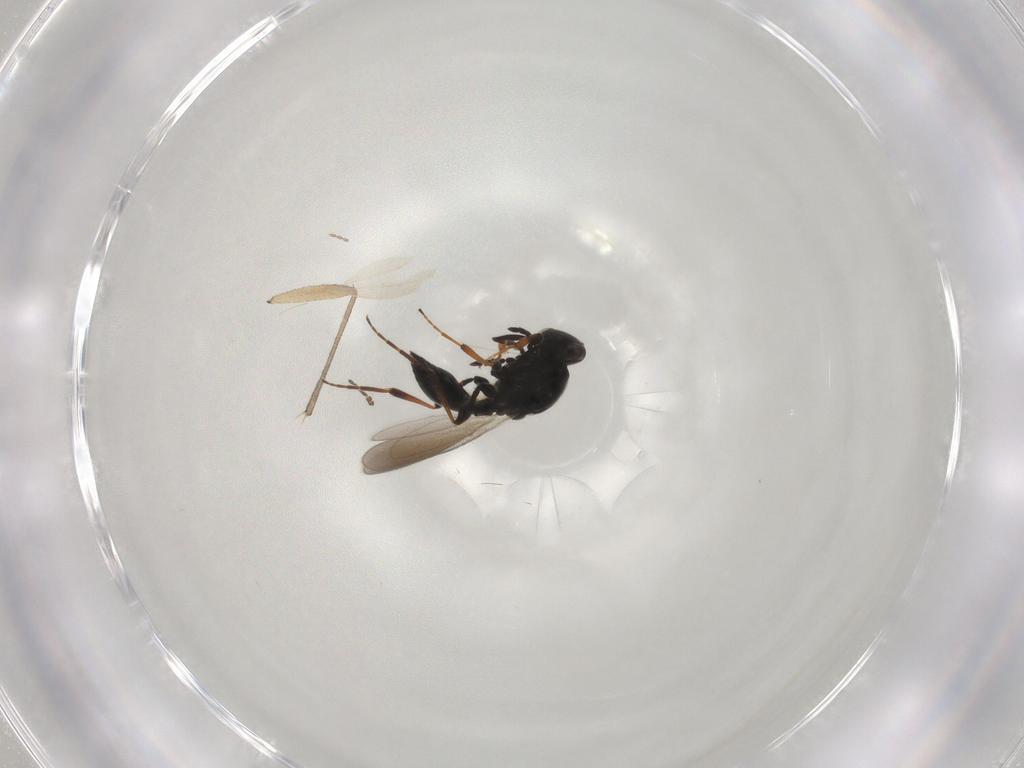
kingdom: Animalia
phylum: Arthropoda
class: Insecta
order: Hymenoptera
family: Platygastridae
